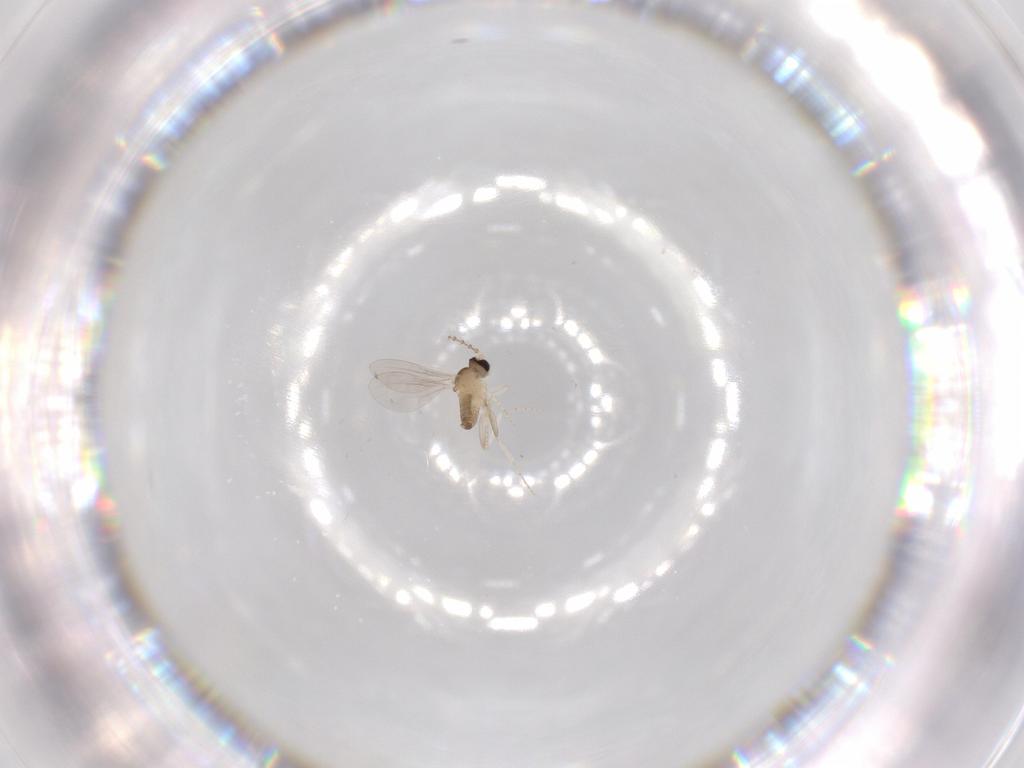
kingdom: Animalia
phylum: Arthropoda
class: Insecta
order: Diptera
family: Cecidomyiidae
